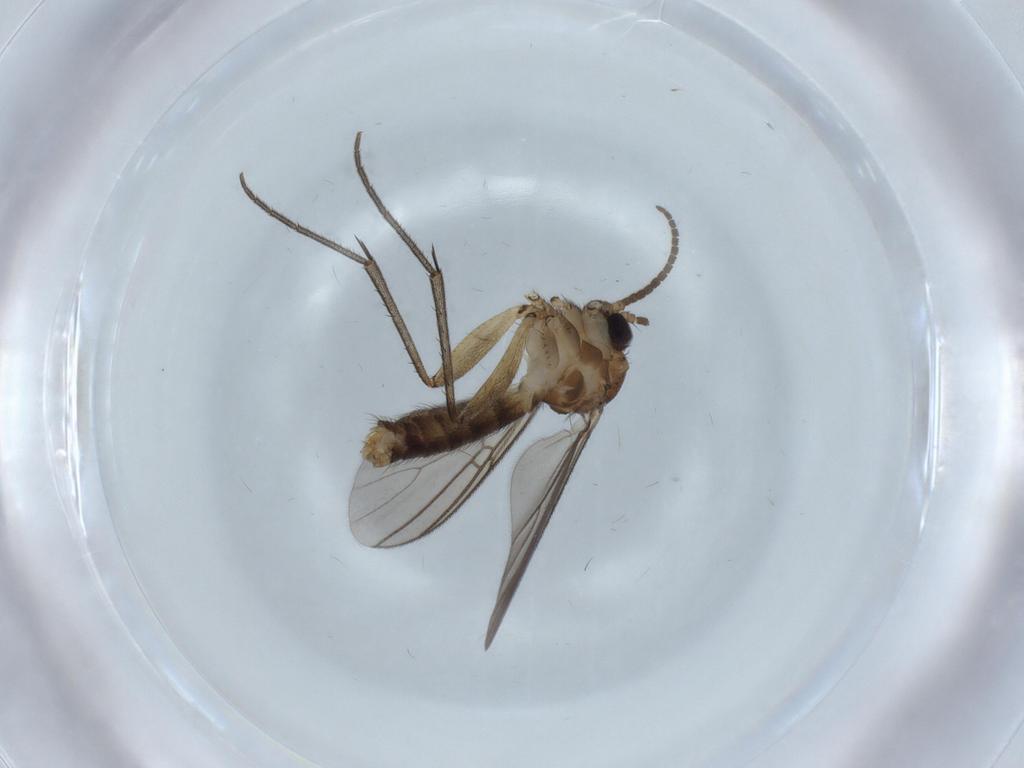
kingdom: Animalia
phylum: Arthropoda
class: Insecta
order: Diptera
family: Mycetophilidae
